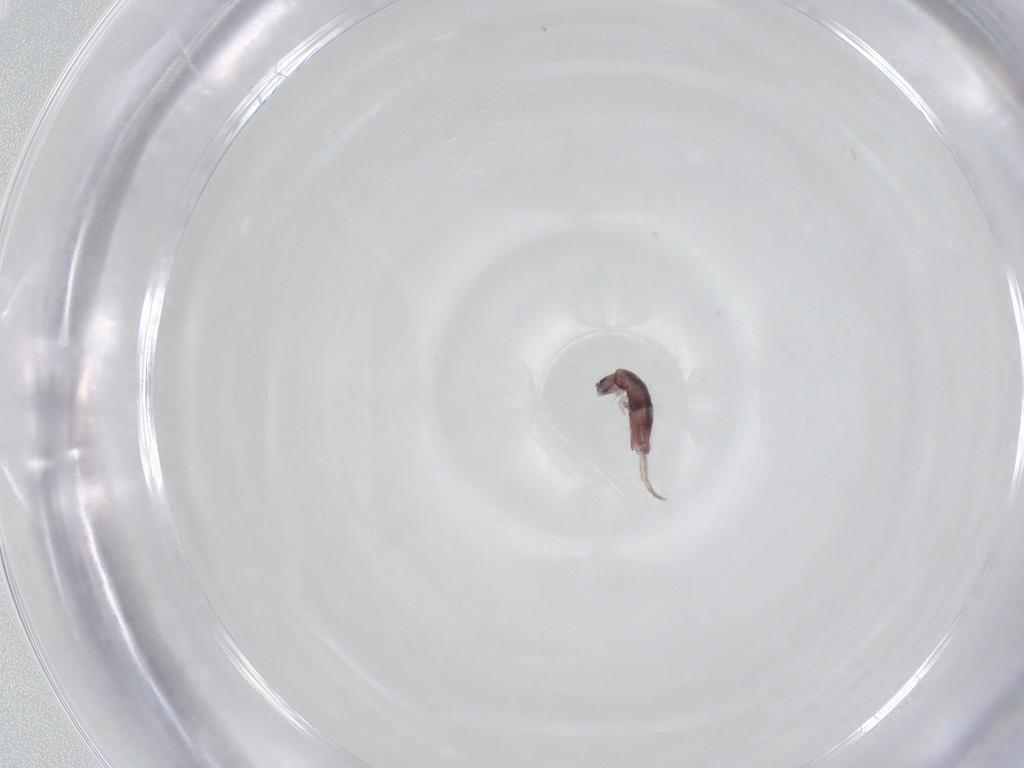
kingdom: Animalia
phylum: Arthropoda
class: Collembola
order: Entomobryomorpha
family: Entomobryidae
